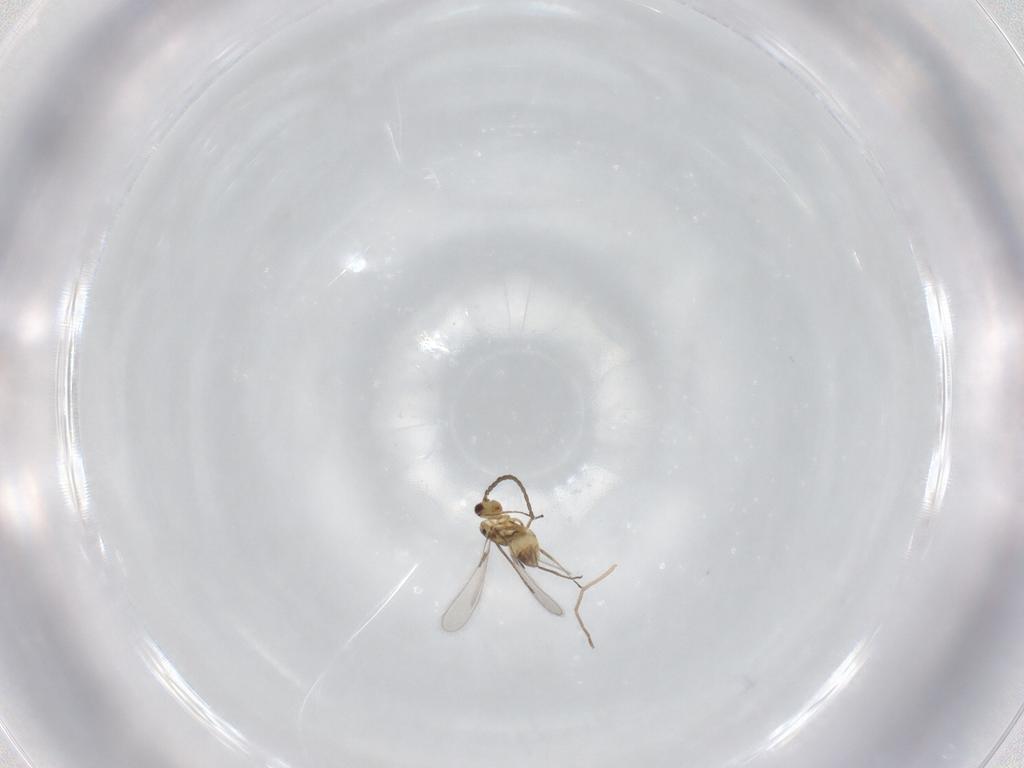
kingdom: Animalia
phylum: Arthropoda
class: Insecta
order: Hymenoptera
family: Mymaridae
